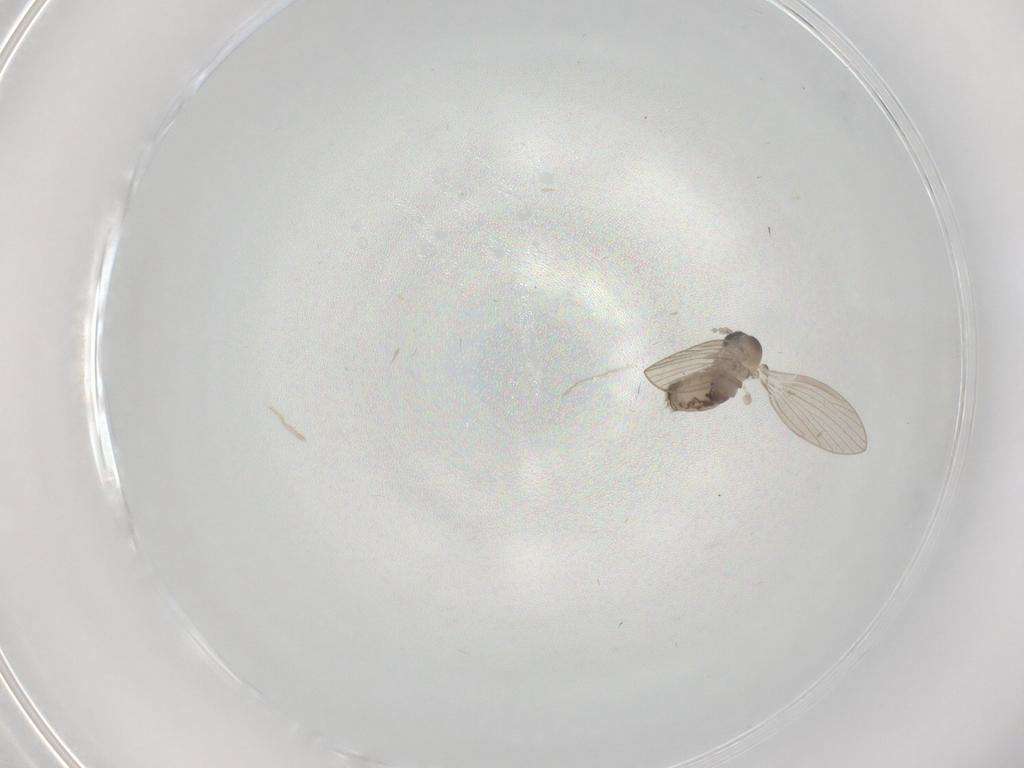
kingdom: Animalia
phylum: Arthropoda
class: Insecta
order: Diptera
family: Psychodidae
